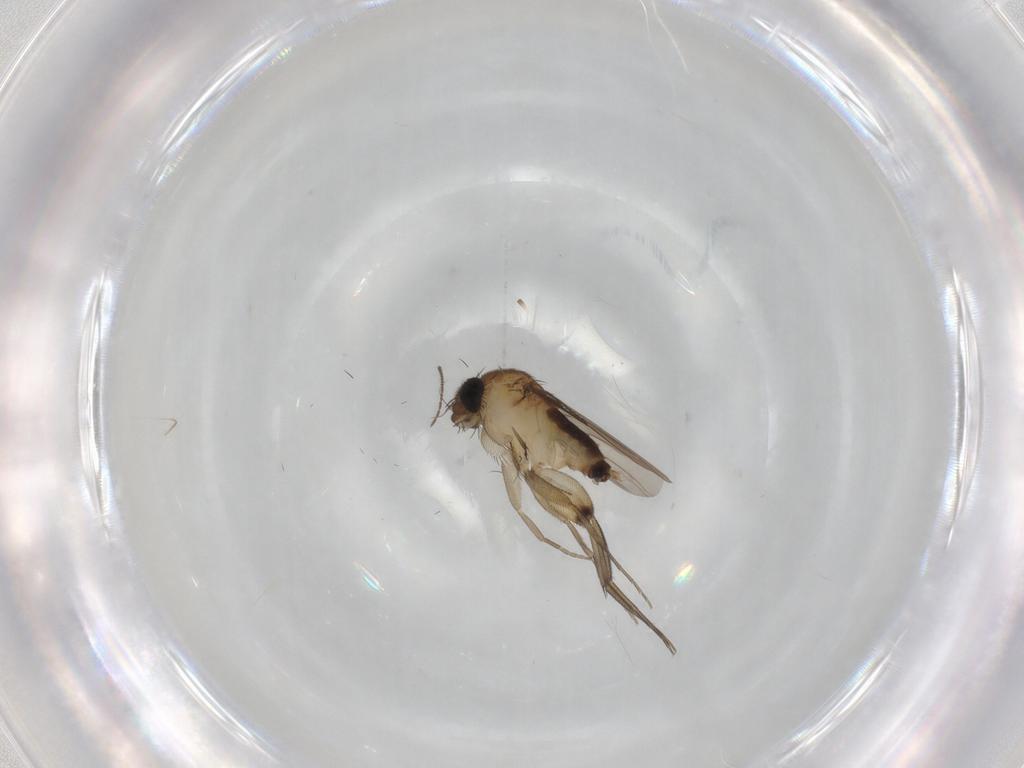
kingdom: Animalia
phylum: Arthropoda
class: Insecta
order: Diptera
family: Phoridae
